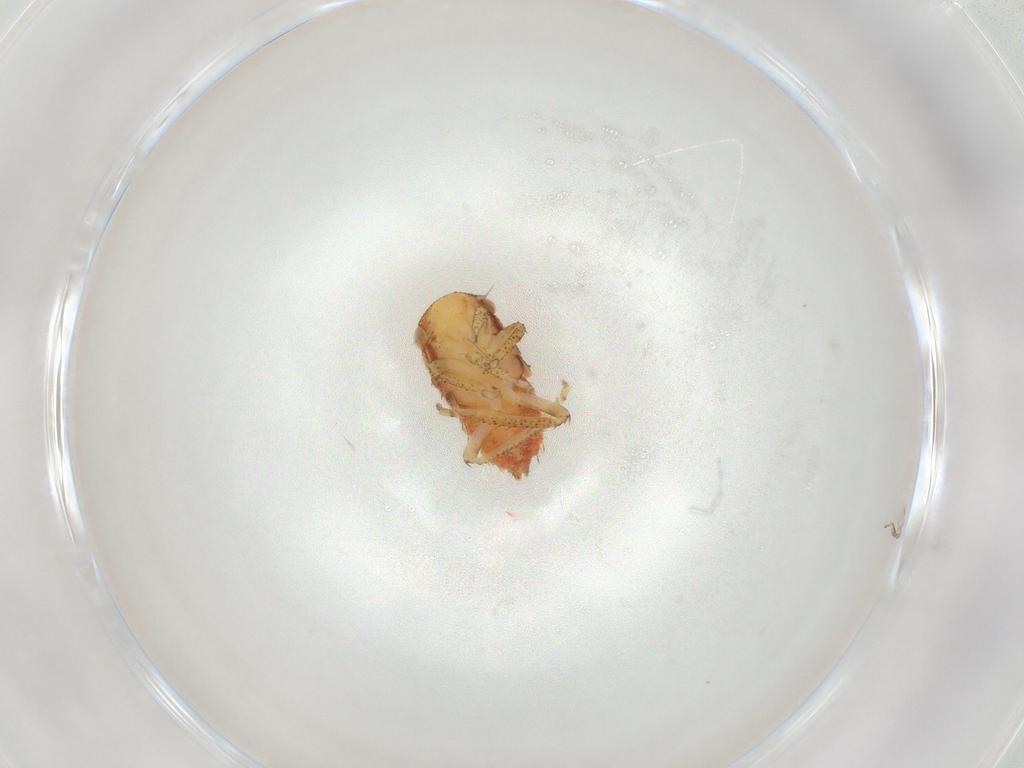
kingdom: Animalia
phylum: Arthropoda
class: Insecta
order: Hemiptera
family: Cicadellidae
